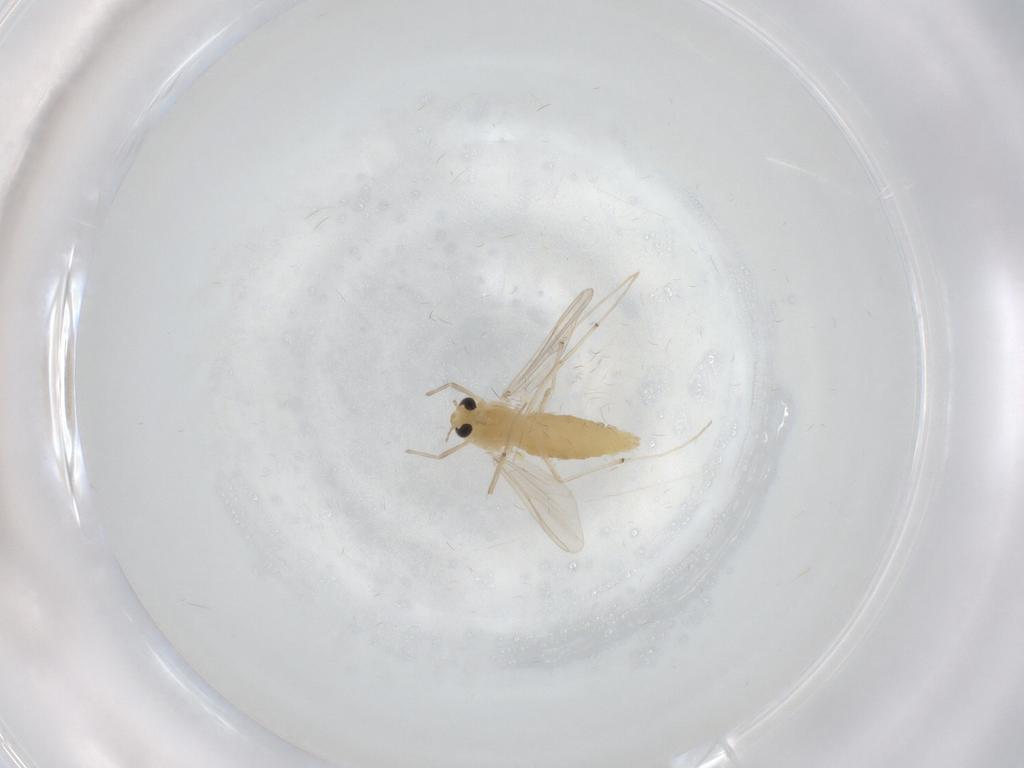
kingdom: Animalia
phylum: Arthropoda
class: Insecta
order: Diptera
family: Chironomidae
